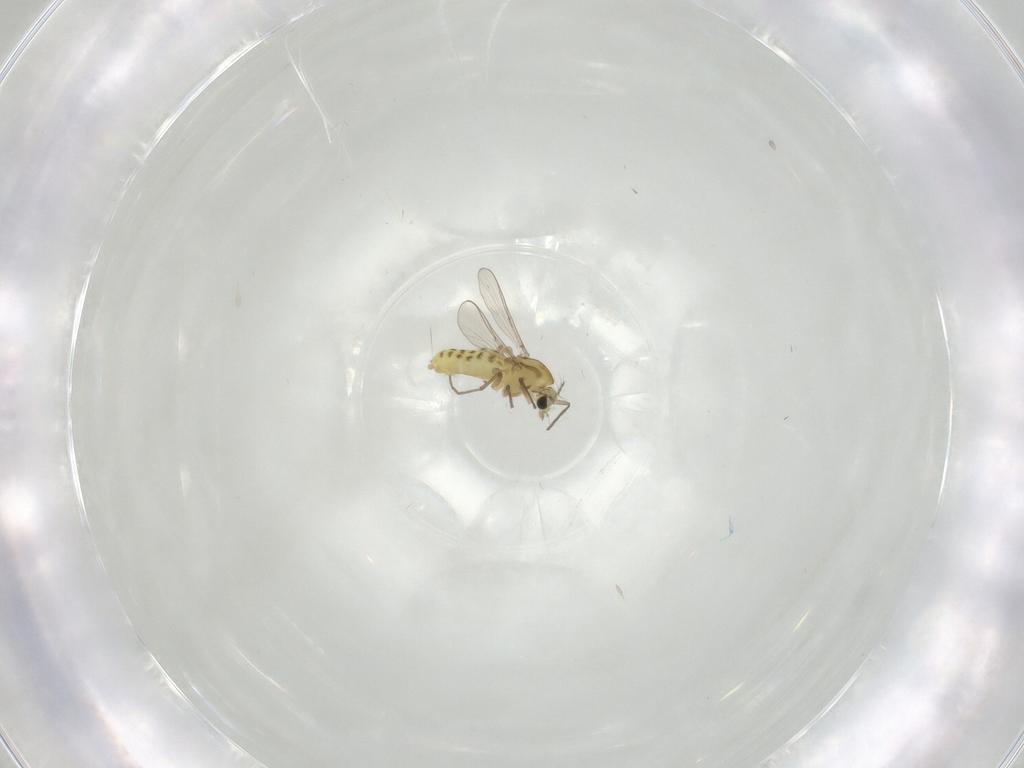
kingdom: Animalia
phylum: Arthropoda
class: Insecta
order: Diptera
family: Chironomidae
